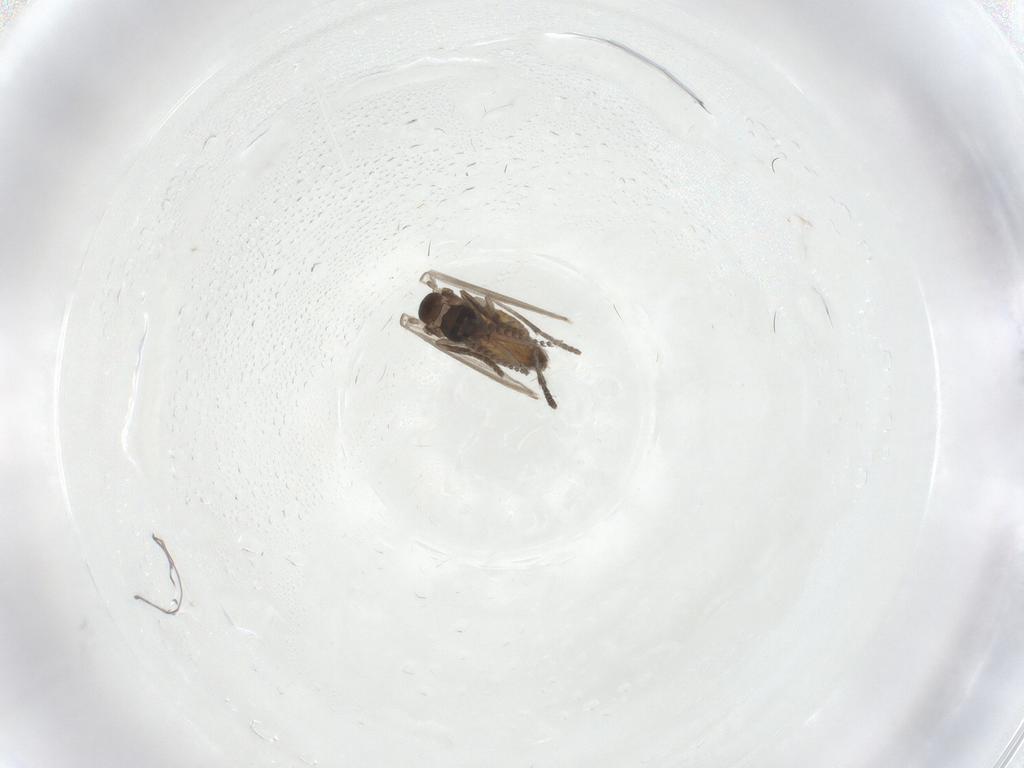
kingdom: Animalia
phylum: Arthropoda
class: Insecta
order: Diptera
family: Psychodidae
